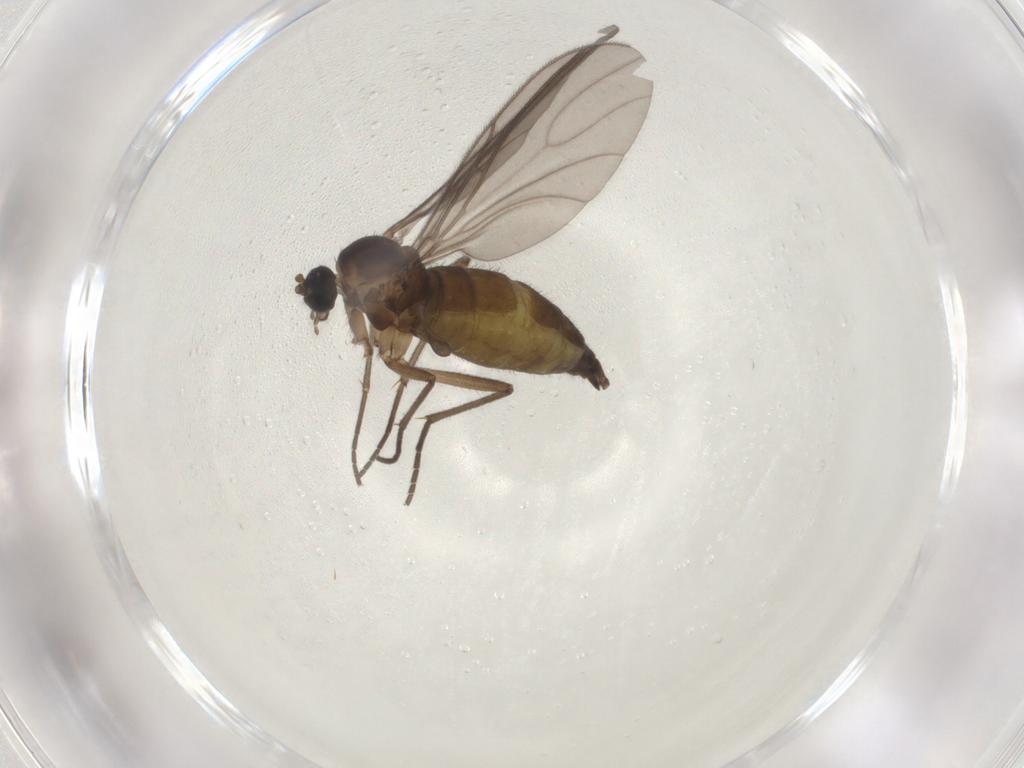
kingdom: Animalia
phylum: Arthropoda
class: Insecta
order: Diptera
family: Sciaridae
